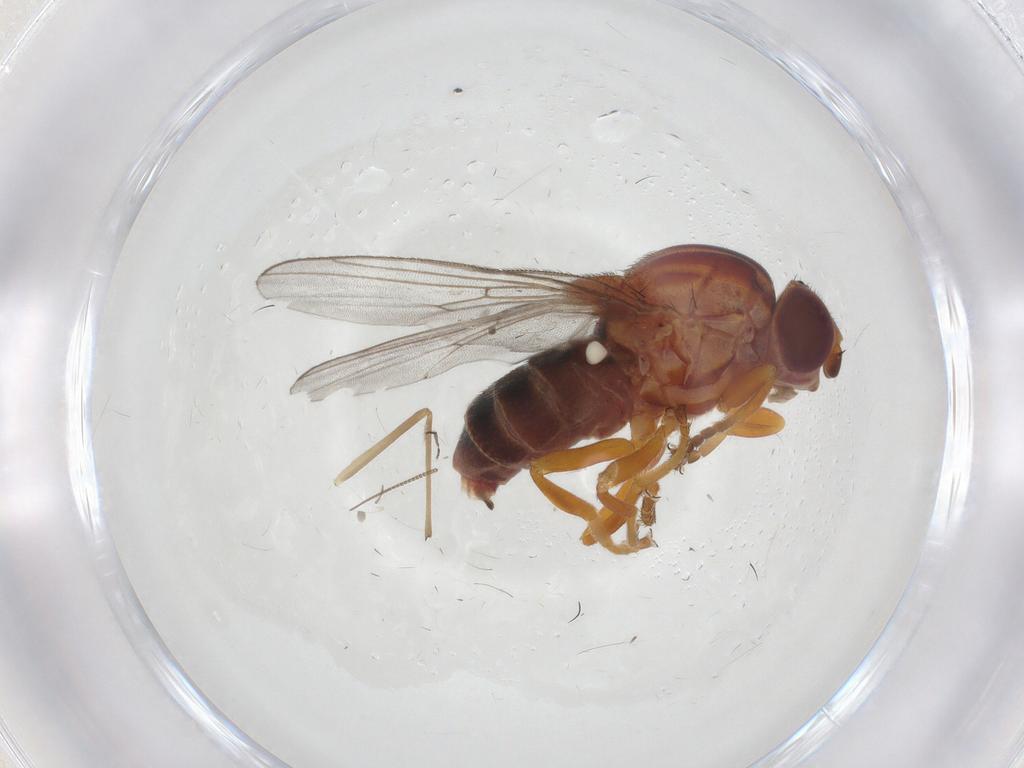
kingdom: Animalia
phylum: Arthropoda
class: Insecta
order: Diptera
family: Chloropidae
